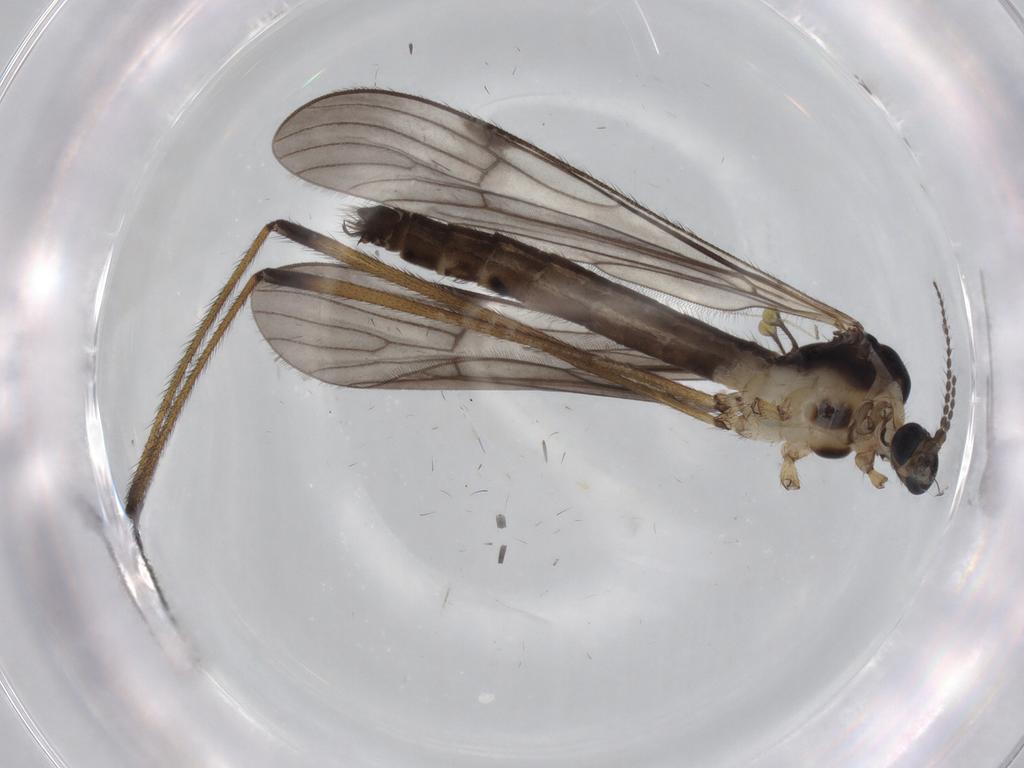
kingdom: Animalia
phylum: Arthropoda
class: Insecta
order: Diptera
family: Cecidomyiidae
